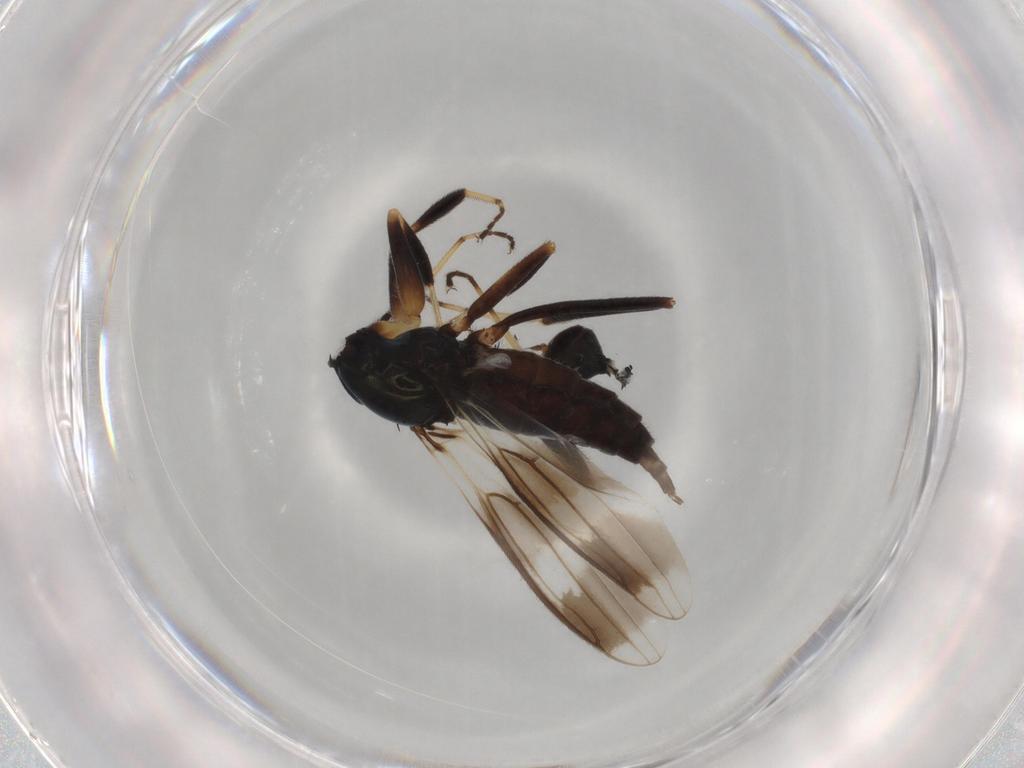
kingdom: Animalia
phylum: Arthropoda
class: Insecta
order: Diptera
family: Hybotidae
